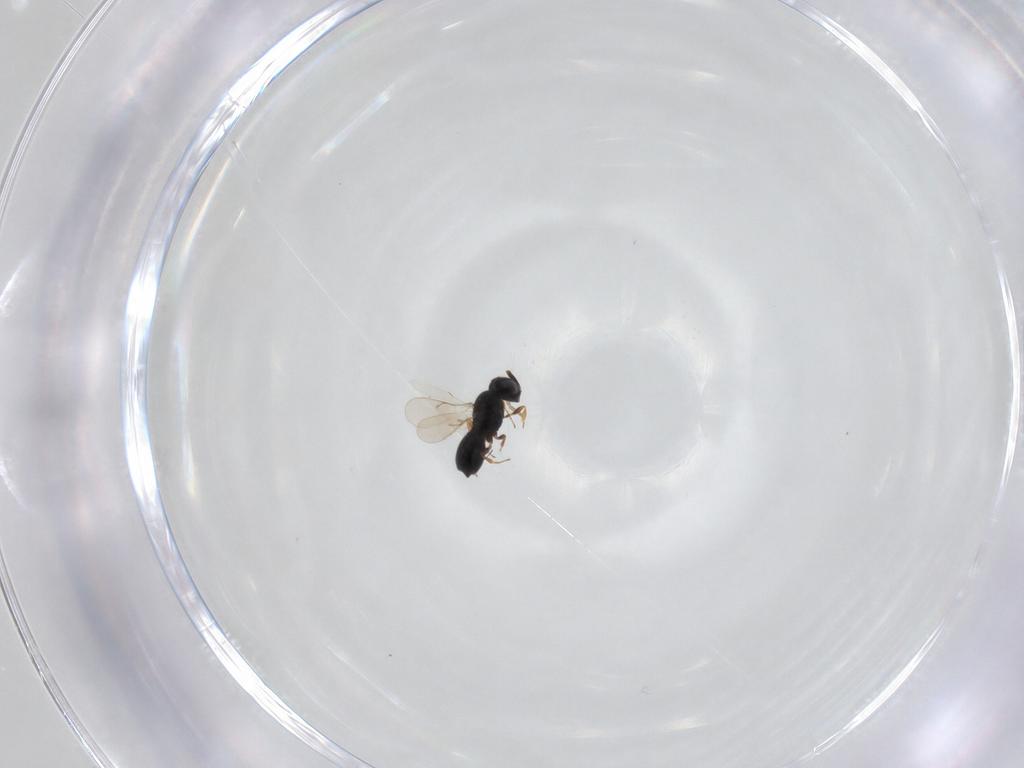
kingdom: Animalia
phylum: Arthropoda
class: Insecta
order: Hymenoptera
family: Scelionidae
